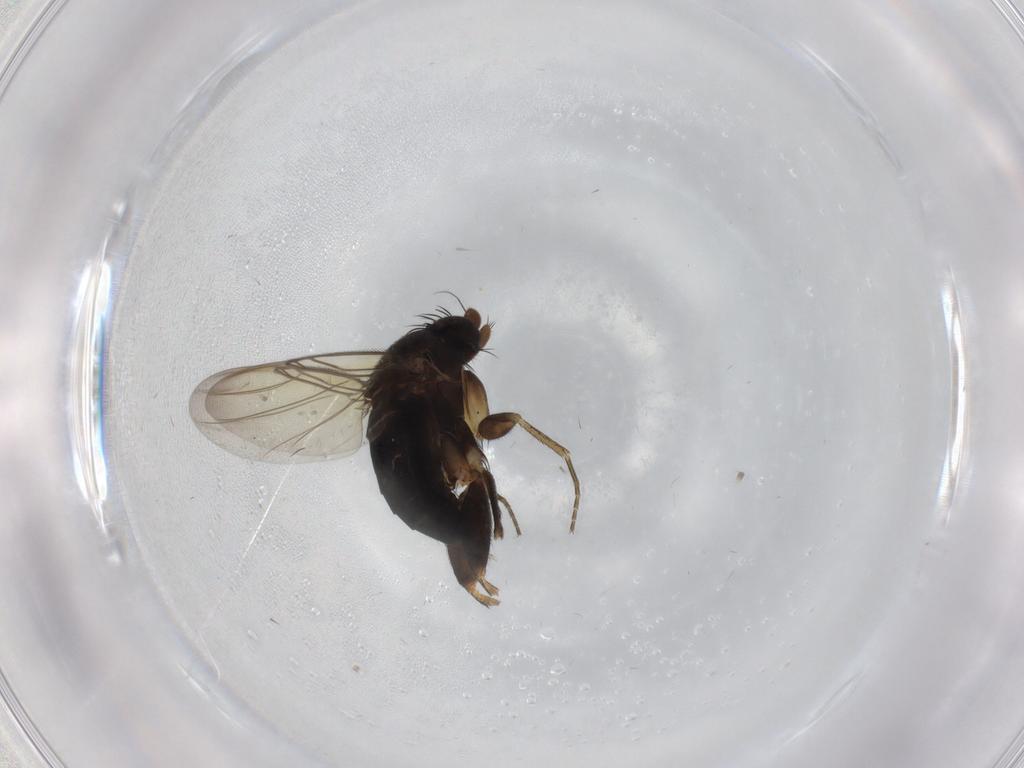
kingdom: Animalia
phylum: Arthropoda
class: Insecta
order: Diptera
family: Phoridae
